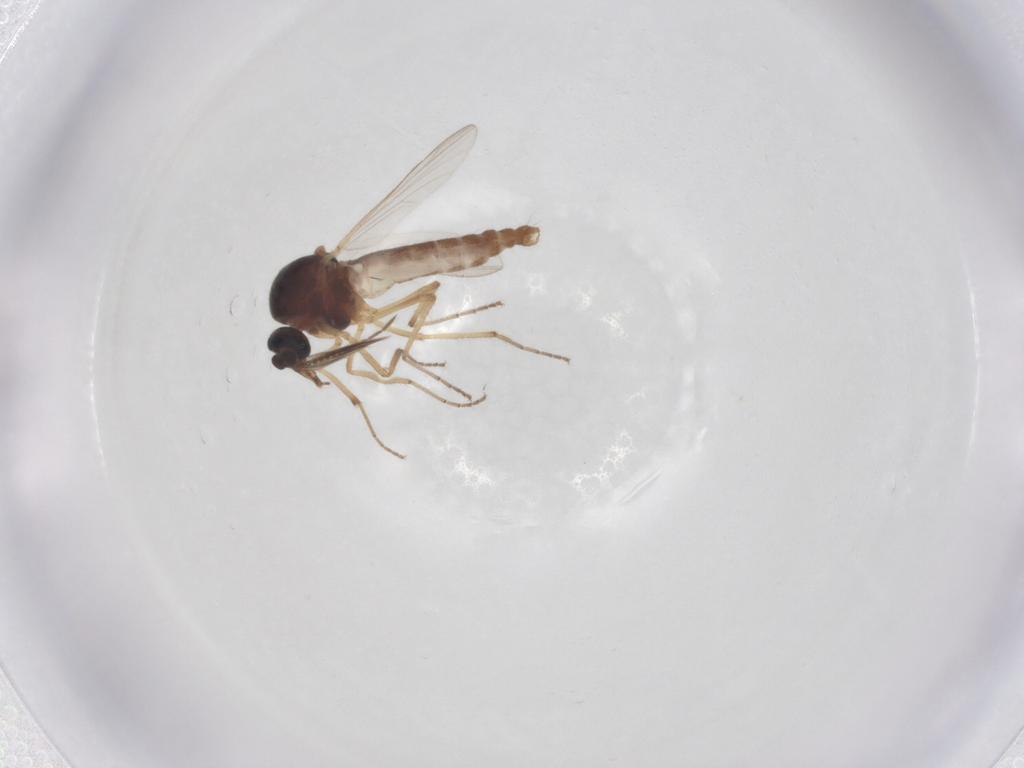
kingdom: Animalia
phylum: Arthropoda
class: Insecta
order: Diptera
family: Ceratopogonidae
